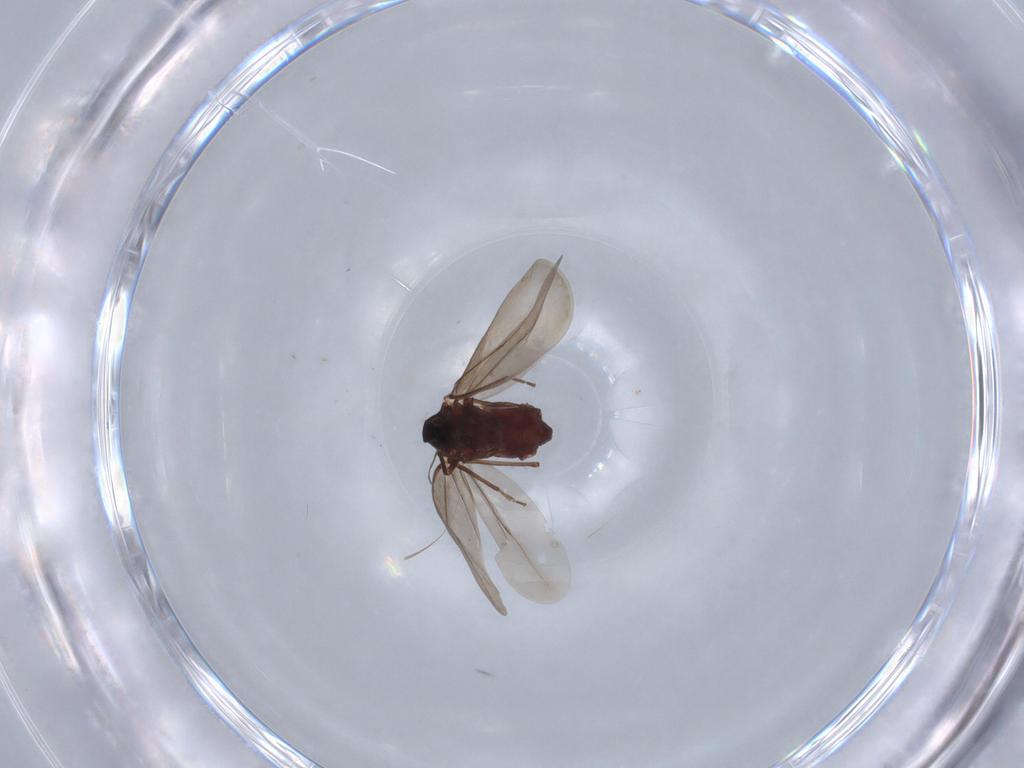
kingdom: Animalia
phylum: Arthropoda
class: Insecta
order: Hemiptera
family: Aleyrodidae
